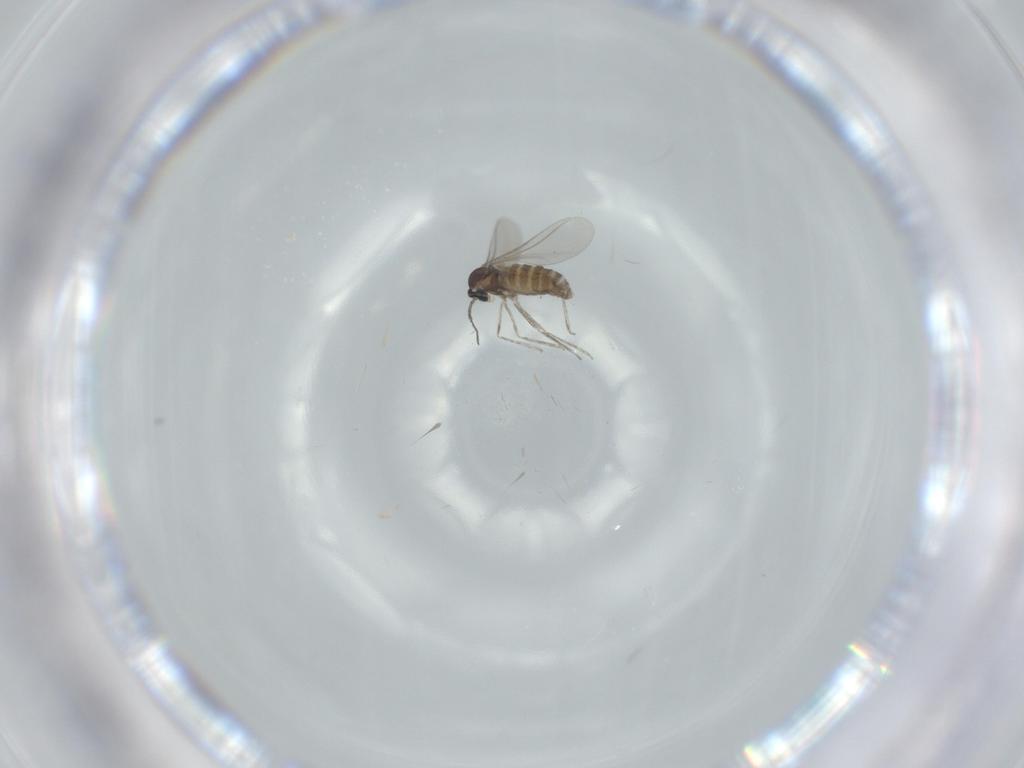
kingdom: Animalia
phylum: Arthropoda
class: Insecta
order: Diptera
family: Cecidomyiidae
